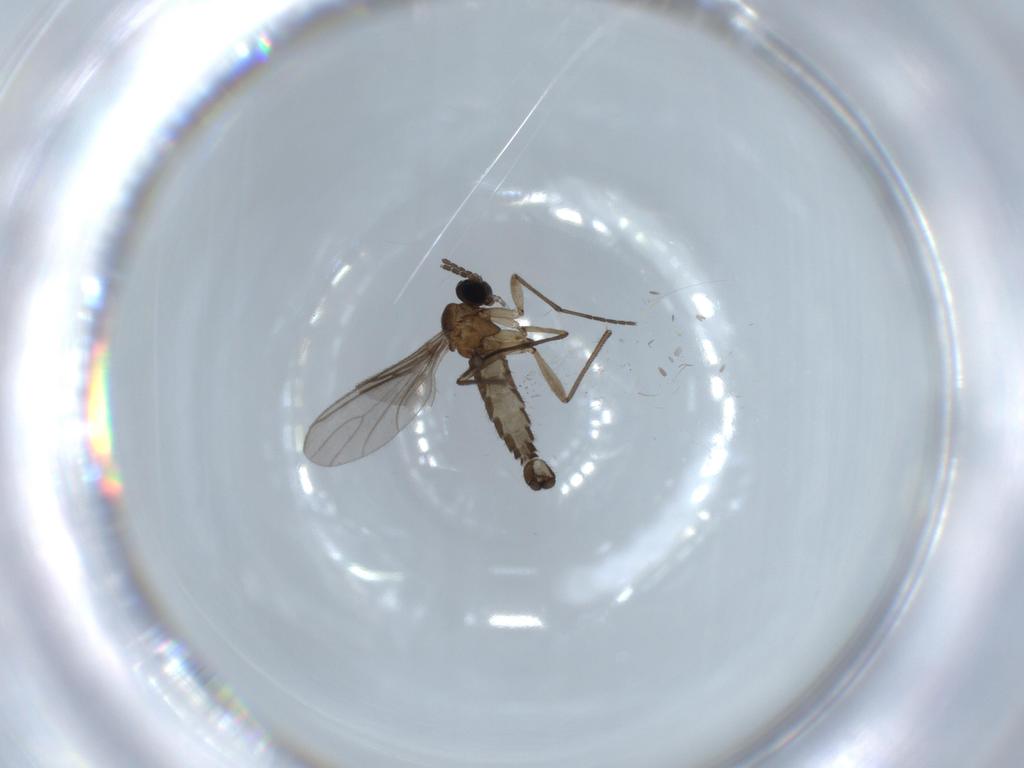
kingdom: Animalia
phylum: Arthropoda
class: Insecta
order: Diptera
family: Sciaridae
